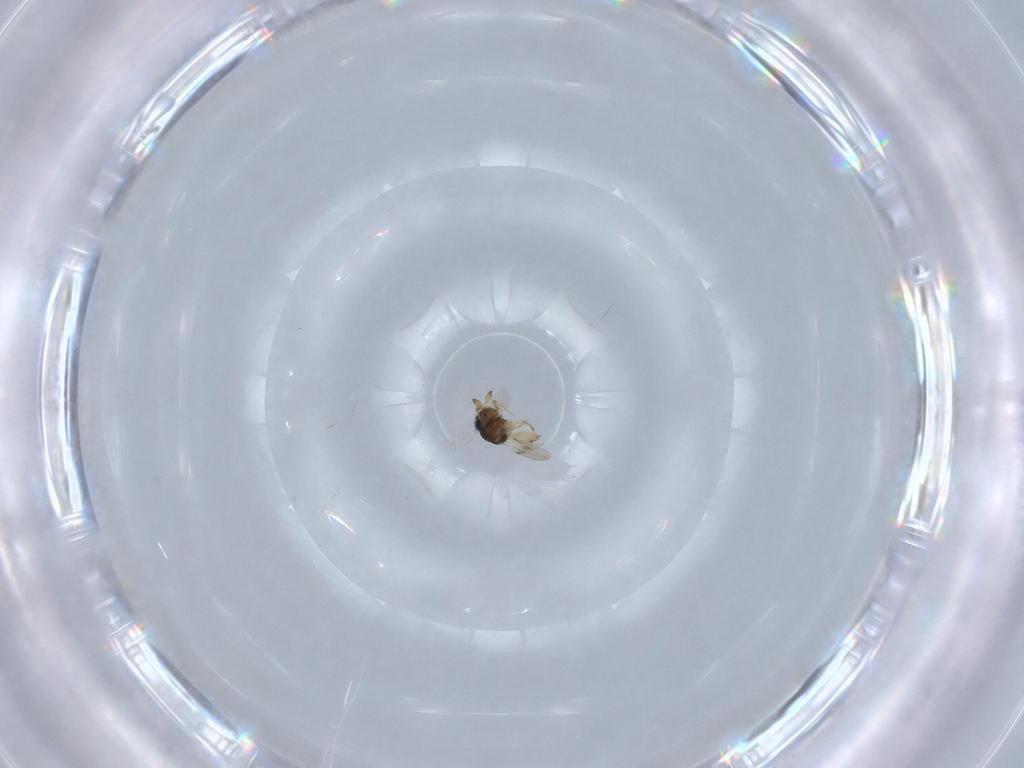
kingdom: Animalia
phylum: Arthropoda
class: Insecta
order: Hymenoptera
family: Scelionidae
